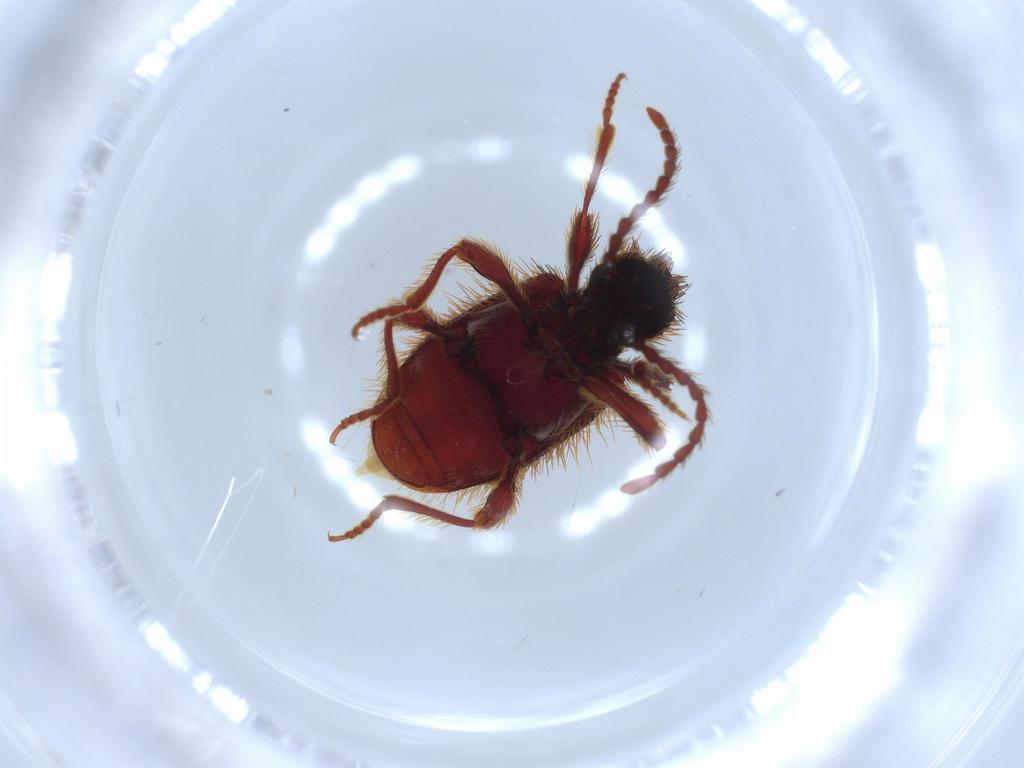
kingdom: Animalia
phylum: Arthropoda
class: Insecta
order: Coleoptera
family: Ptinidae
